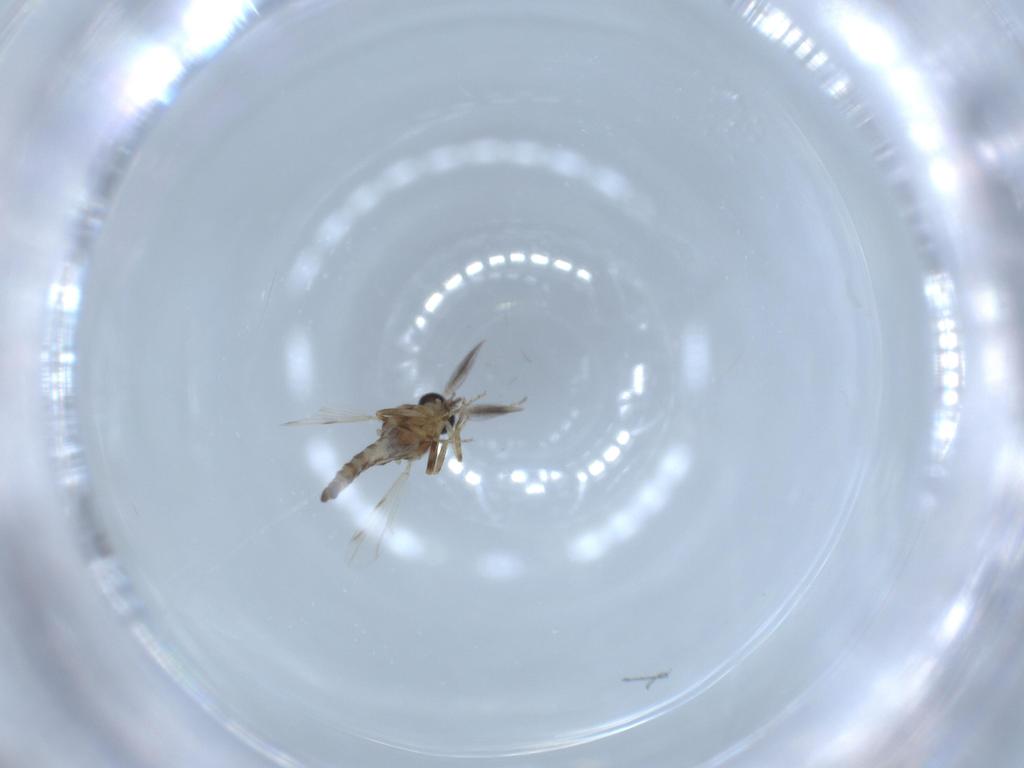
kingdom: Animalia
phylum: Arthropoda
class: Insecta
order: Diptera
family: Ceratopogonidae
